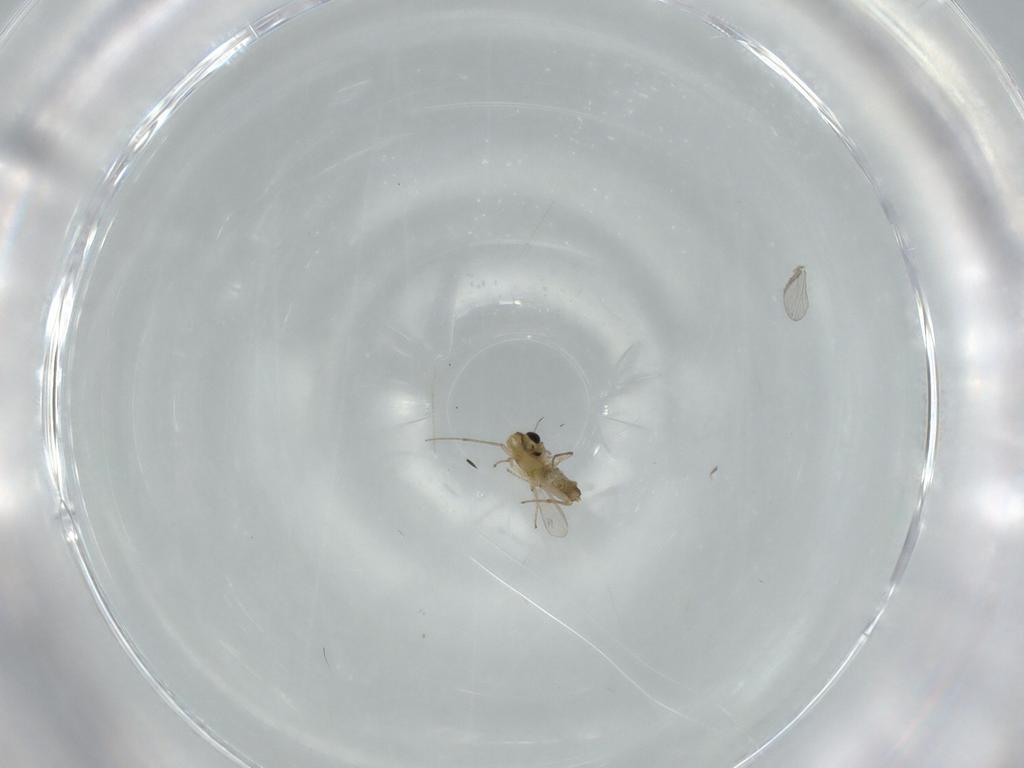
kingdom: Animalia
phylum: Arthropoda
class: Insecta
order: Diptera
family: Chironomidae
